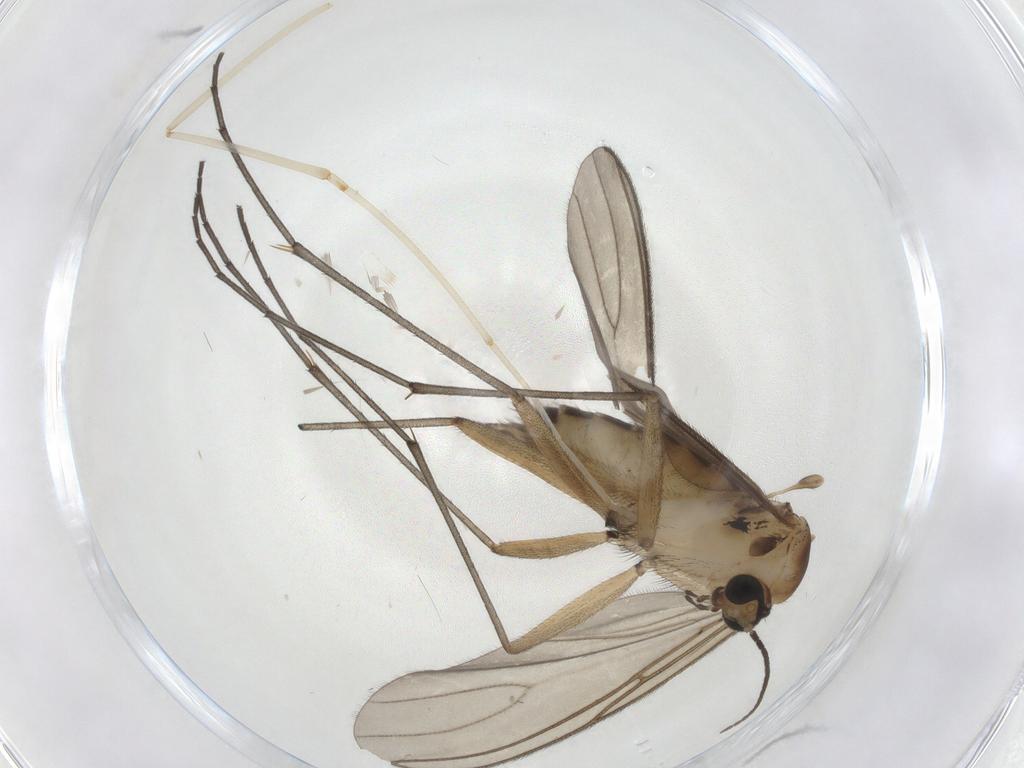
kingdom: Animalia
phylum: Arthropoda
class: Insecta
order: Diptera
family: Sciaridae
